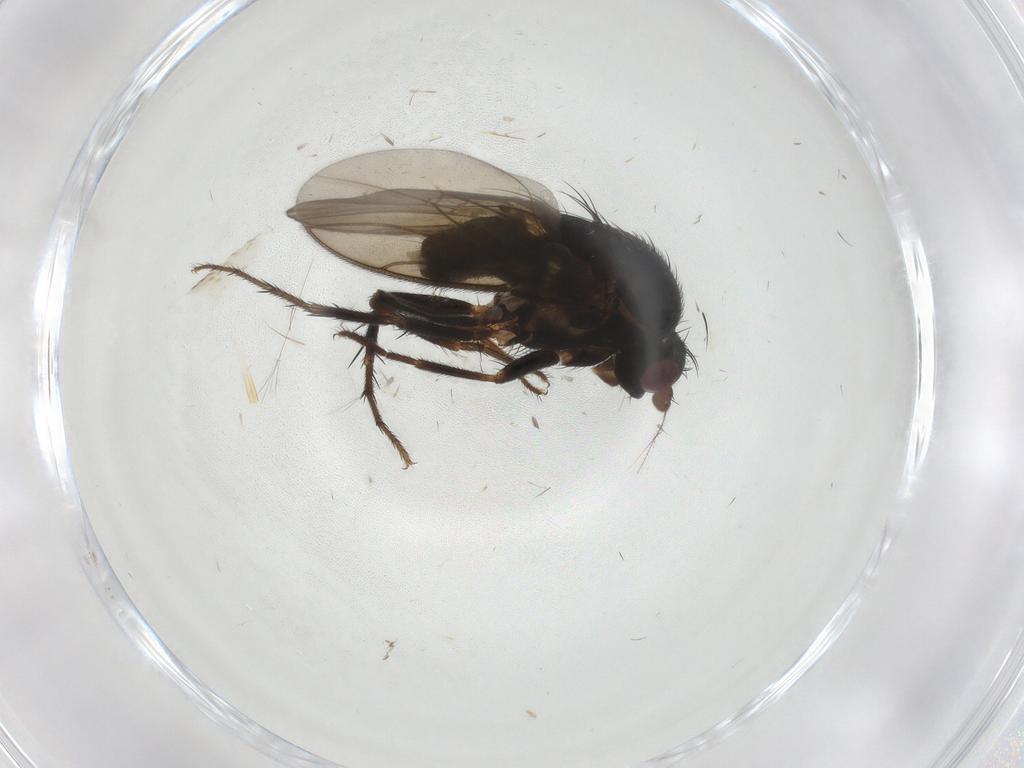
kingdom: Animalia
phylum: Arthropoda
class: Insecta
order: Diptera
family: Sphaeroceridae
